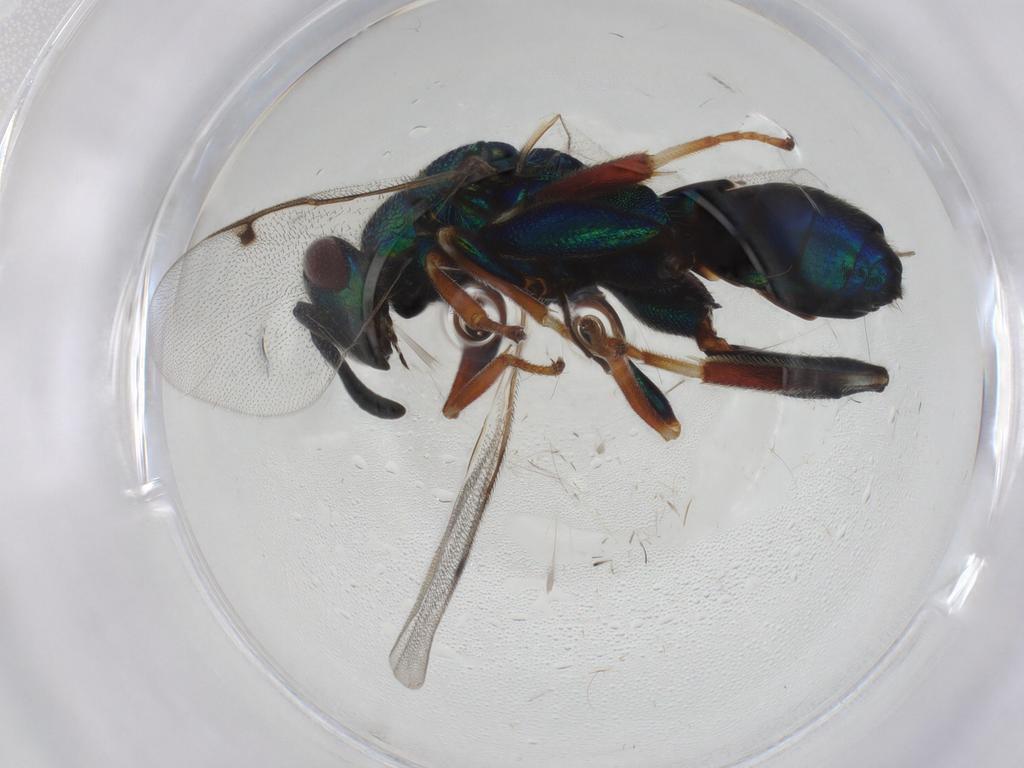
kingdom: Animalia
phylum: Arthropoda
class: Insecta
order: Hymenoptera
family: Torymidae
